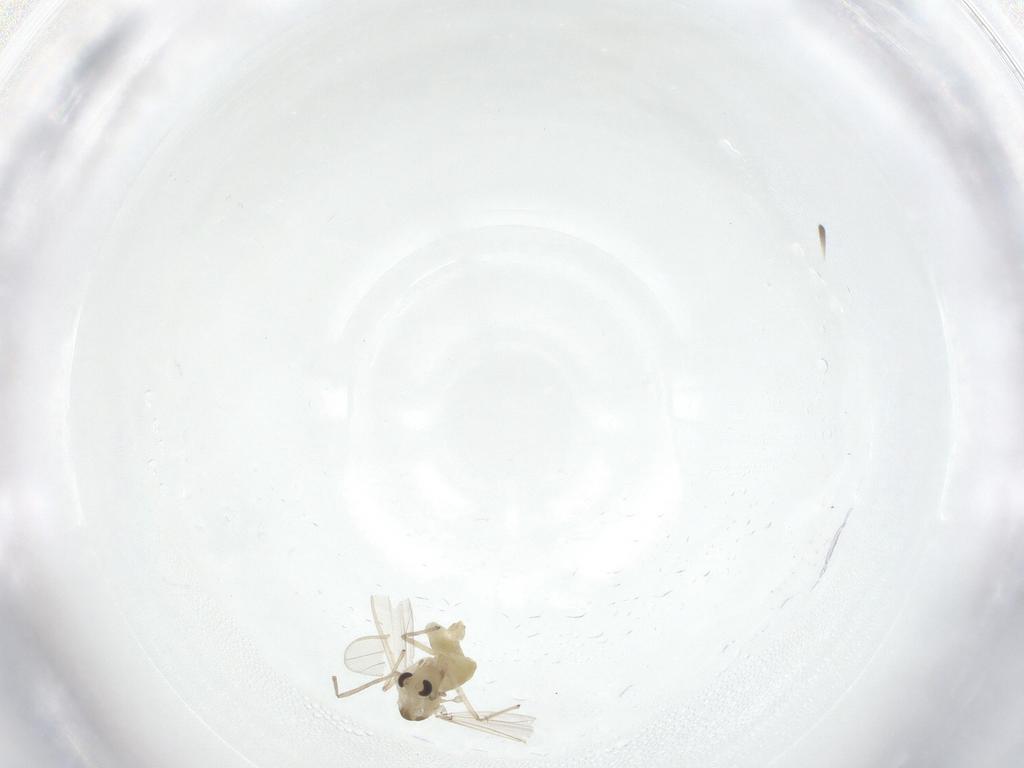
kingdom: Animalia
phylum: Arthropoda
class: Insecta
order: Diptera
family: Chironomidae
